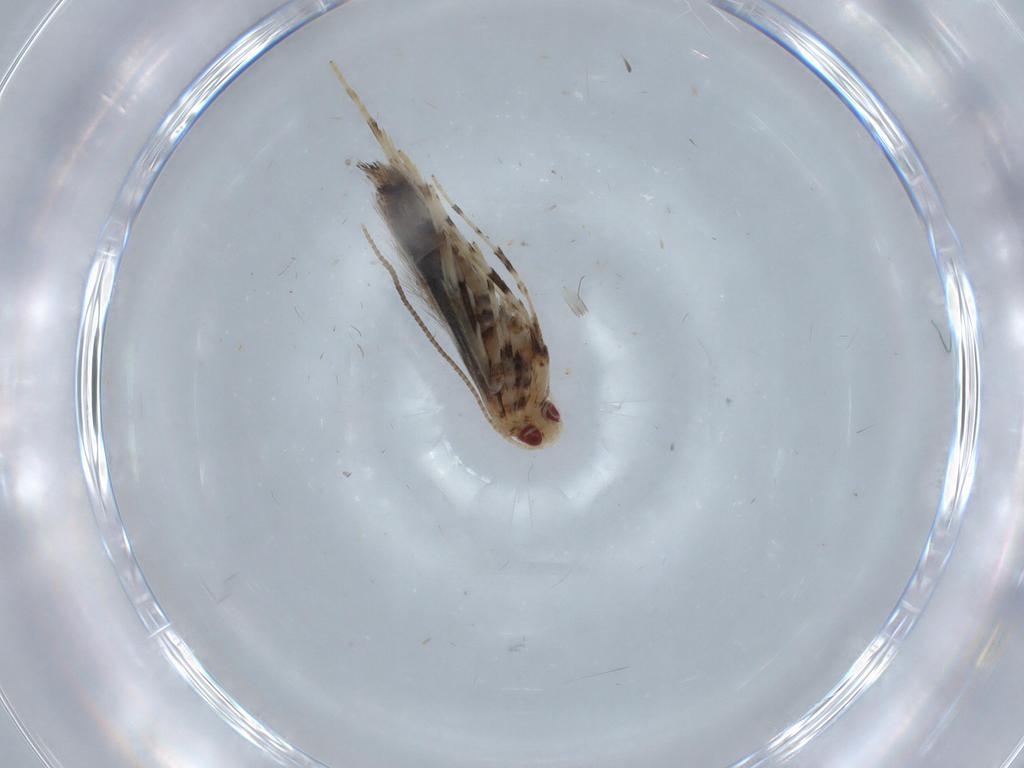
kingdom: Animalia
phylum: Arthropoda
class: Insecta
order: Lepidoptera
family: Gracillariidae
